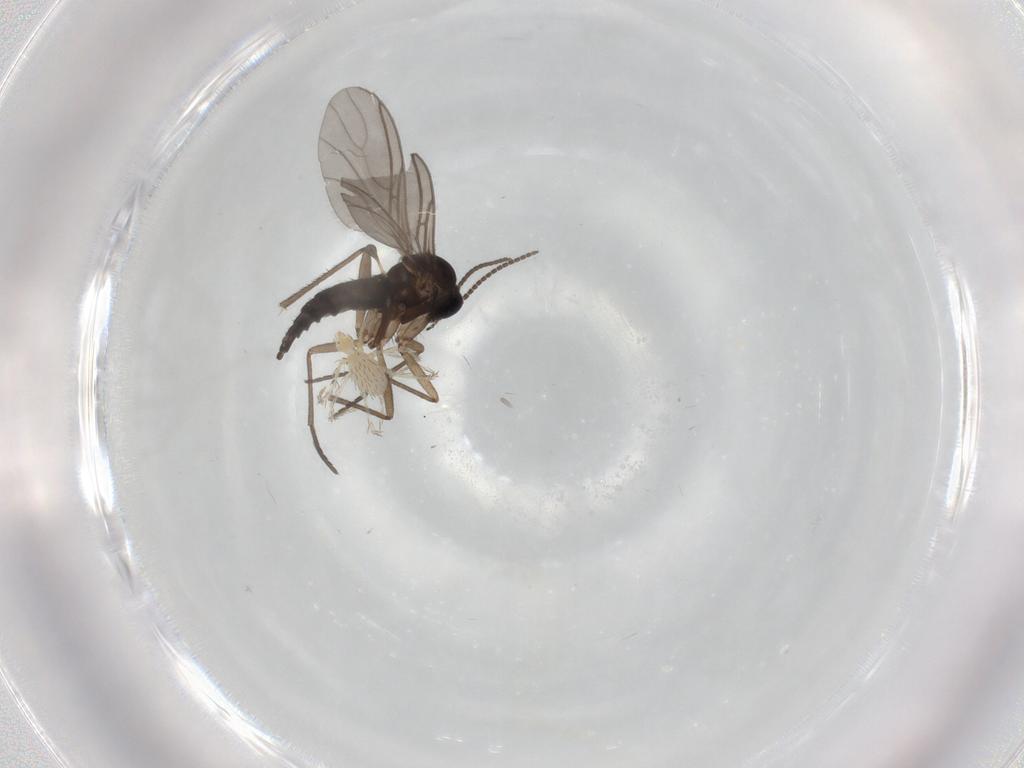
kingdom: Animalia
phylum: Arthropoda
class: Insecta
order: Diptera
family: Sciaridae
